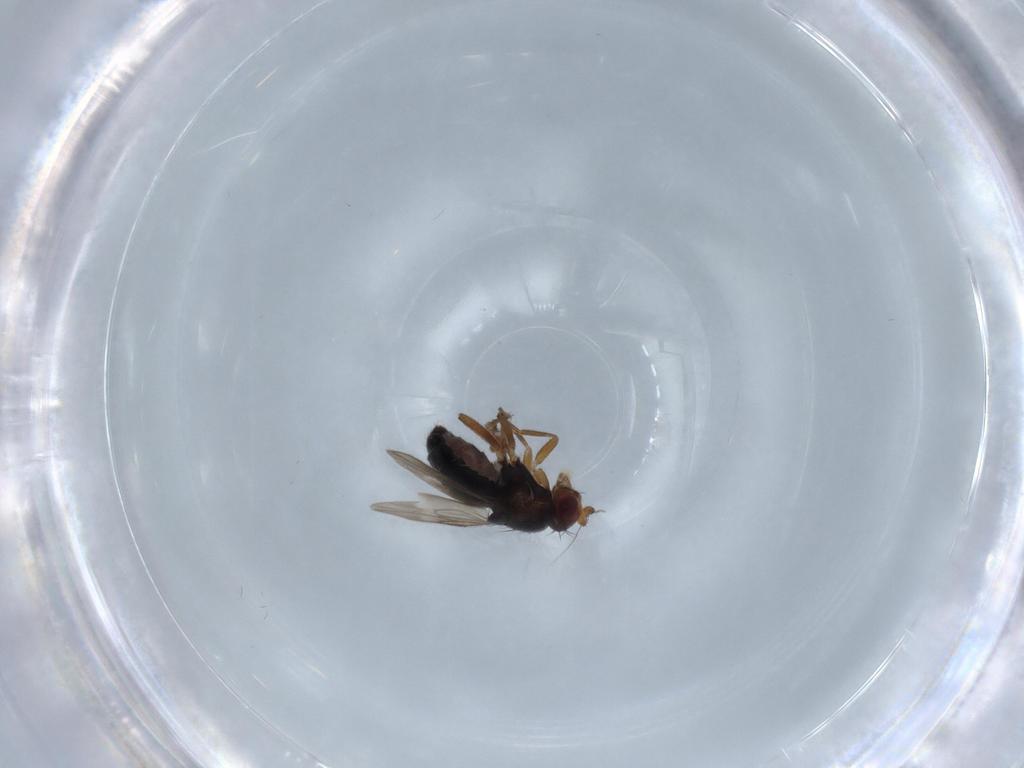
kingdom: Animalia
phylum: Arthropoda
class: Insecta
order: Diptera
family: Sphaeroceridae
